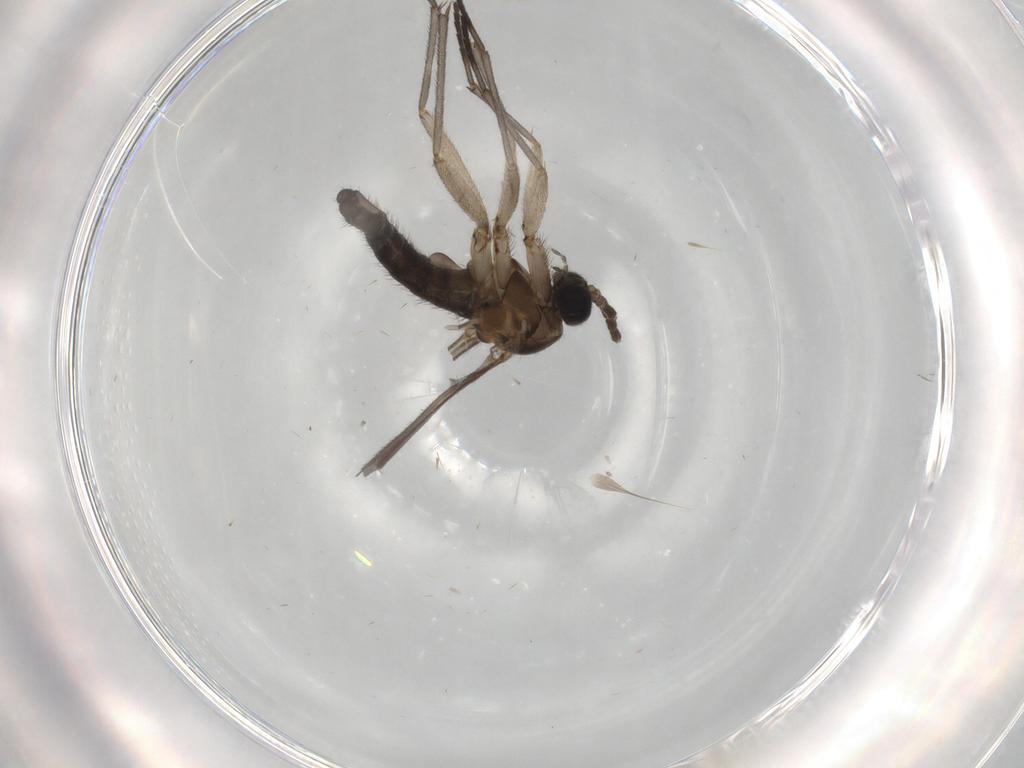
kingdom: Animalia
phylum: Arthropoda
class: Insecta
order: Diptera
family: Sciaridae
